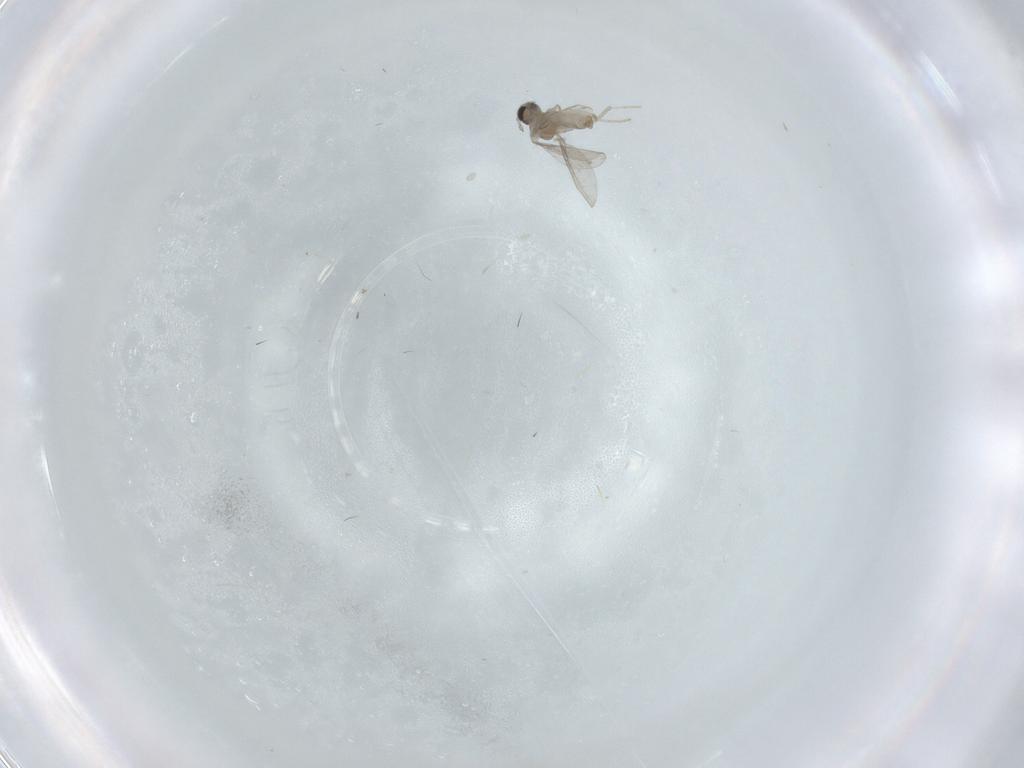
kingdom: Animalia
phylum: Arthropoda
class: Insecta
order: Diptera
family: Dolichopodidae
